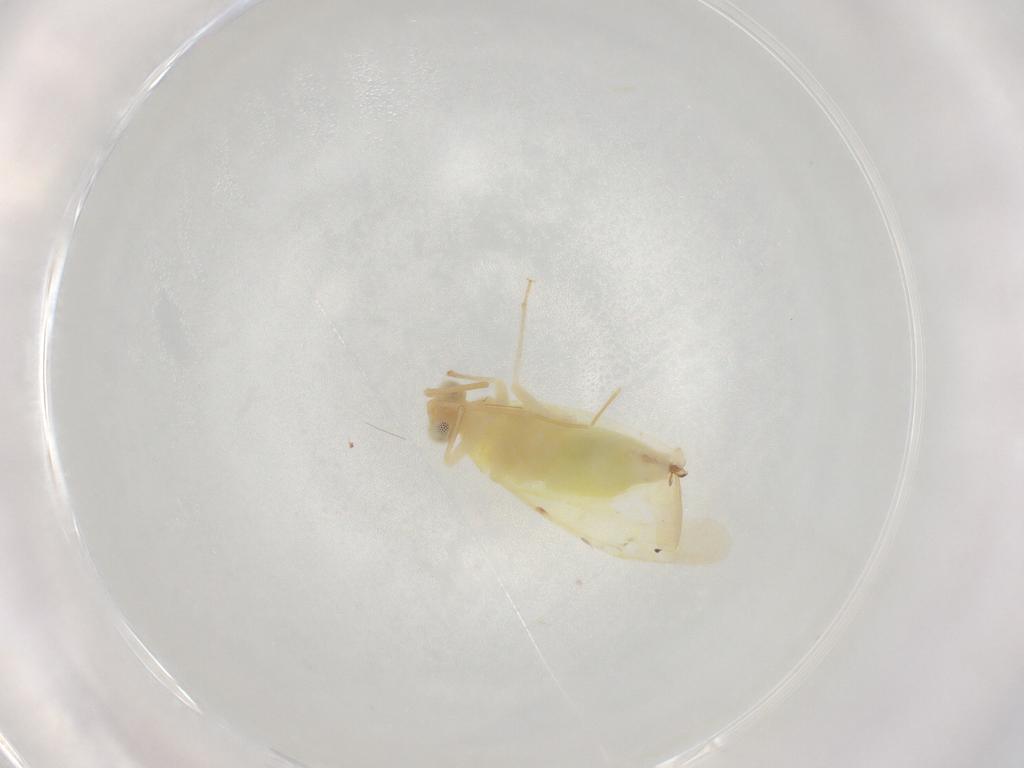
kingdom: Animalia
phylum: Arthropoda
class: Insecta
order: Hemiptera
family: Cicadellidae
